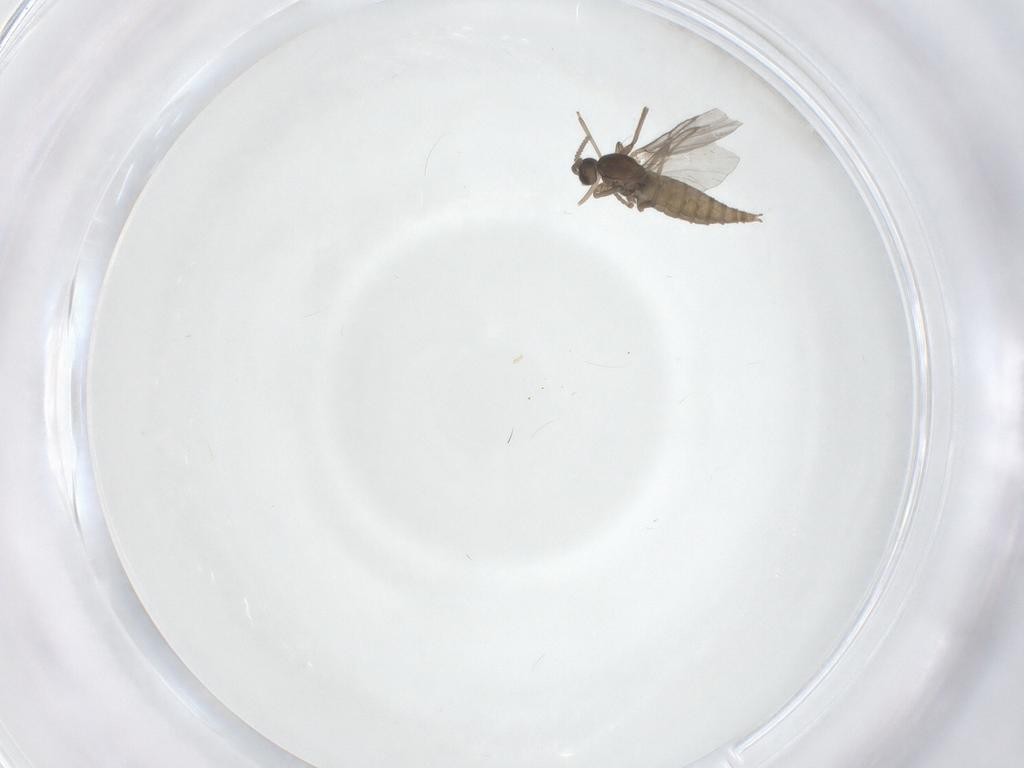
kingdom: Animalia
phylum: Arthropoda
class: Insecta
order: Diptera
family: Cecidomyiidae
